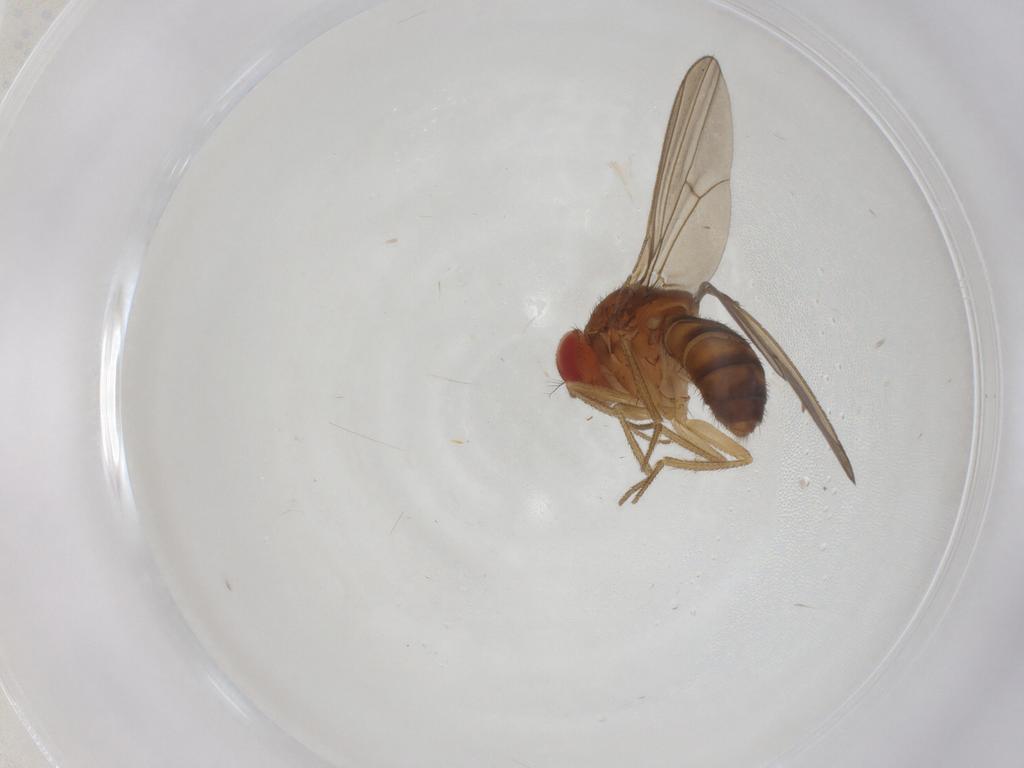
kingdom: Animalia
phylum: Arthropoda
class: Insecta
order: Diptera
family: Drosophilidae
